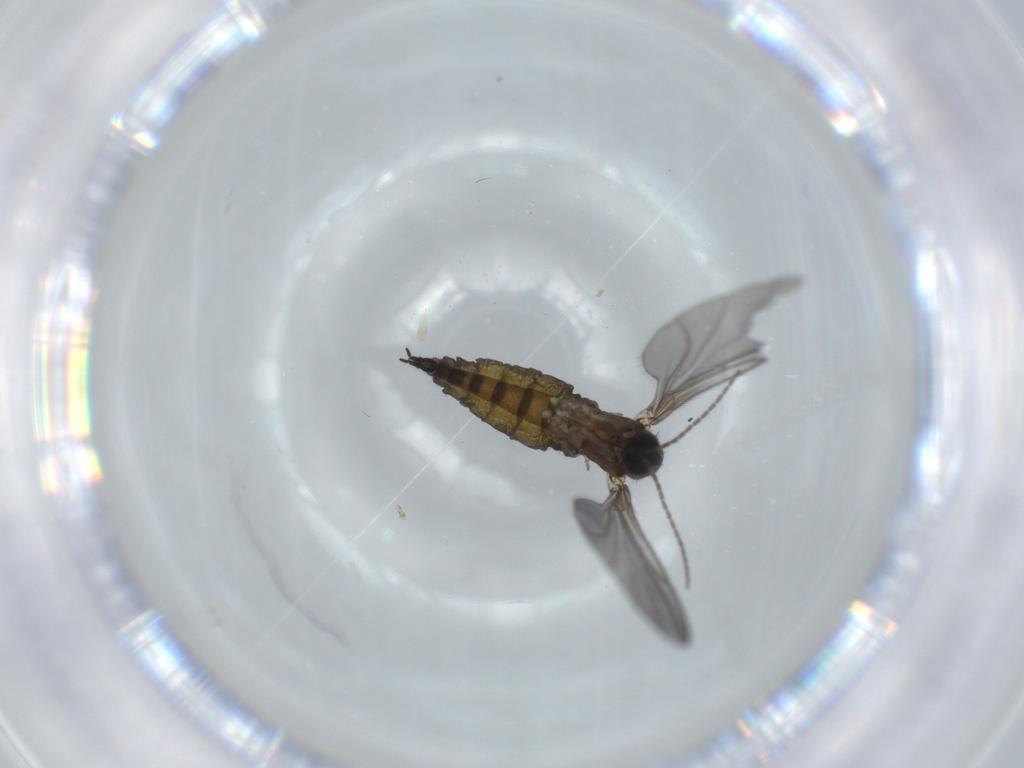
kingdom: Animalia
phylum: Arthropoda
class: Insecta
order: Diptera
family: Sciaridae
